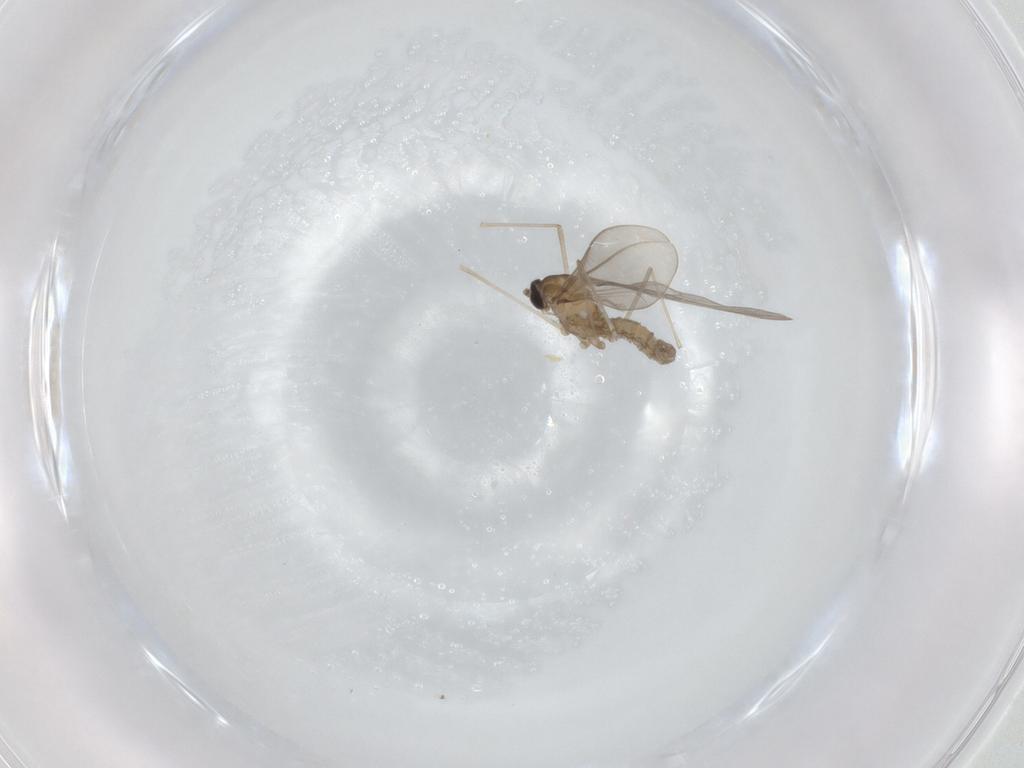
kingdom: Animalia
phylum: Arthropoda
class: Insecta
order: Diptera
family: Cecidomyiidae
